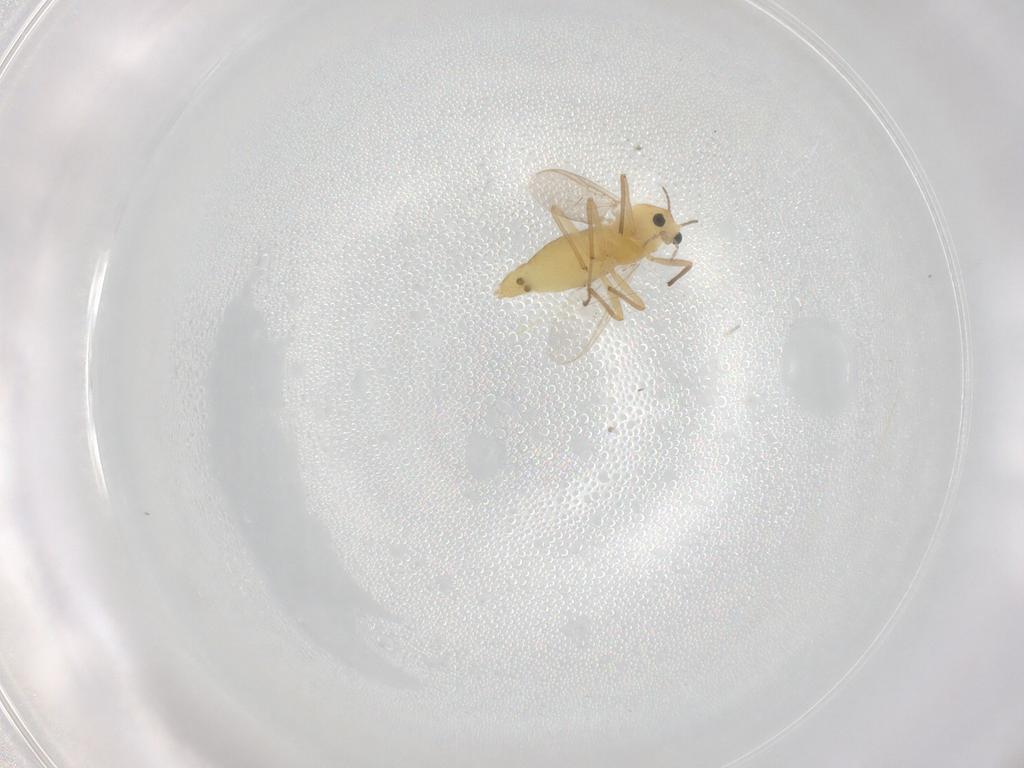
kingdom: Animalia
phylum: Arthropoda
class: Insecta
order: Diptera
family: Chironomidae
